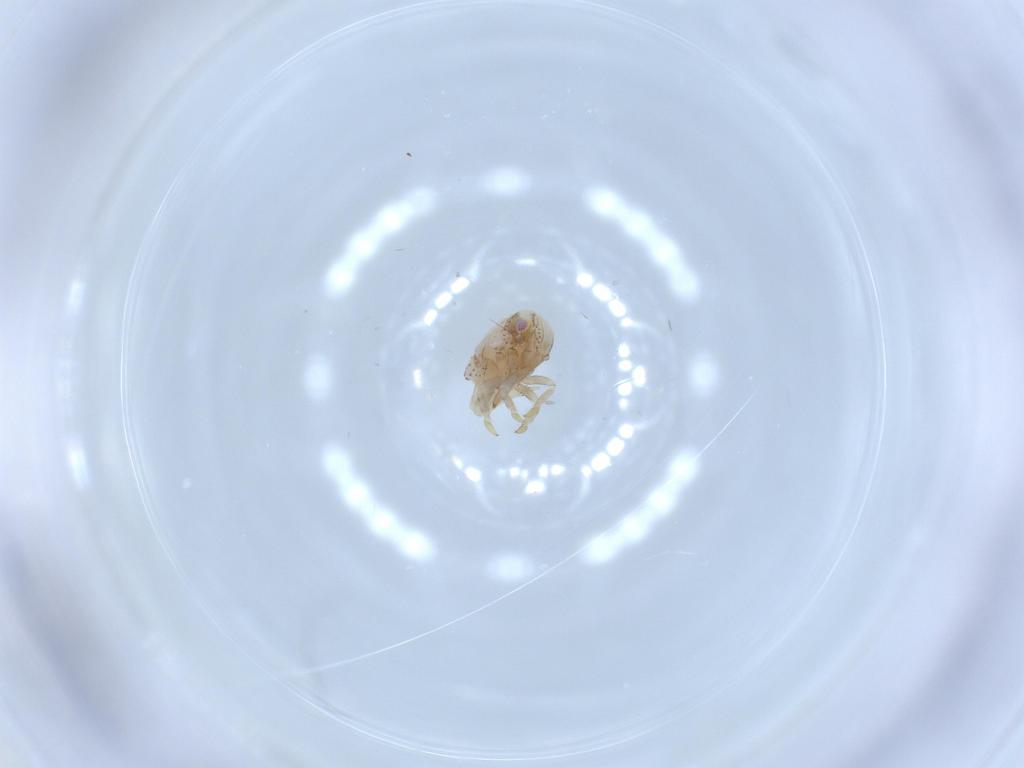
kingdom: Animalia
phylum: Arthropoda
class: Insecta
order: Hemiptera
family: Acanaloniidae
